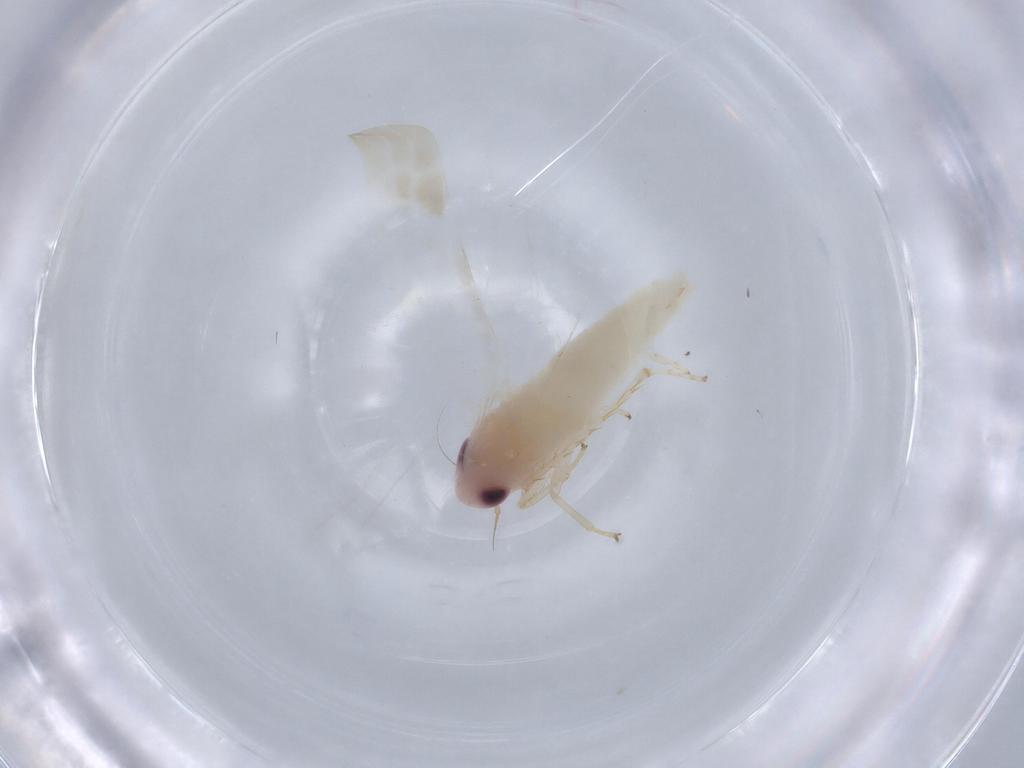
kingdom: Animalia
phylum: Arthropoda
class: Insecta
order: Hemiptera
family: Cicadellidae
